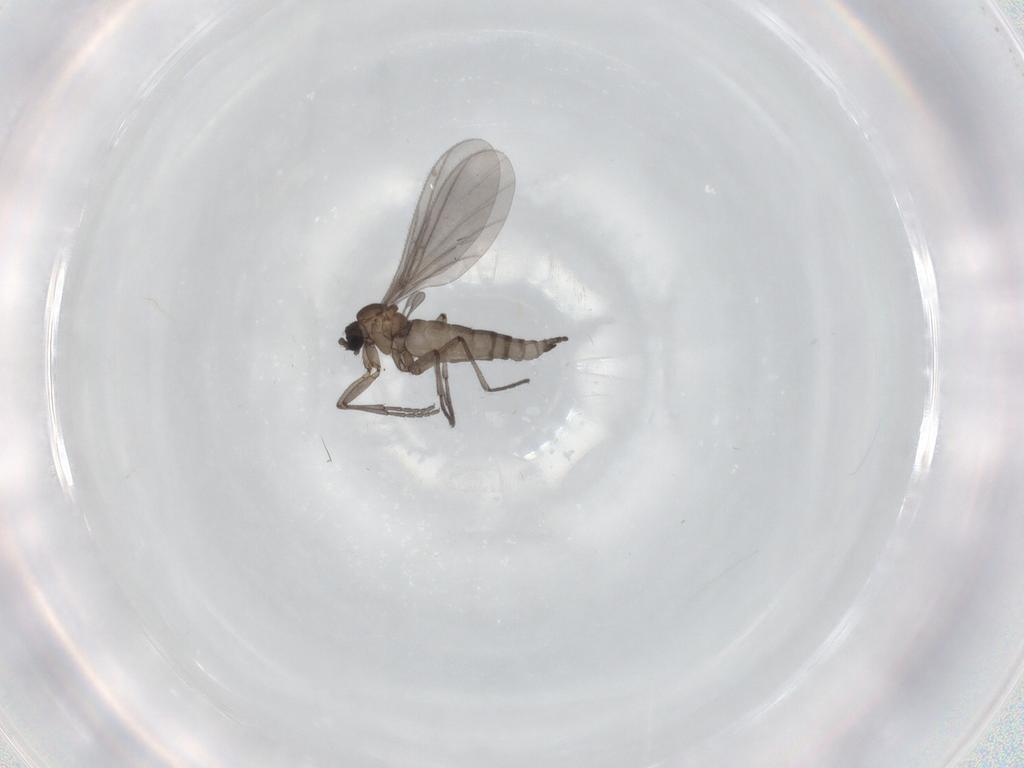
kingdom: Animalia
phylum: Arthropoda
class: Insecta
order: Diptera
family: Sciaridae
